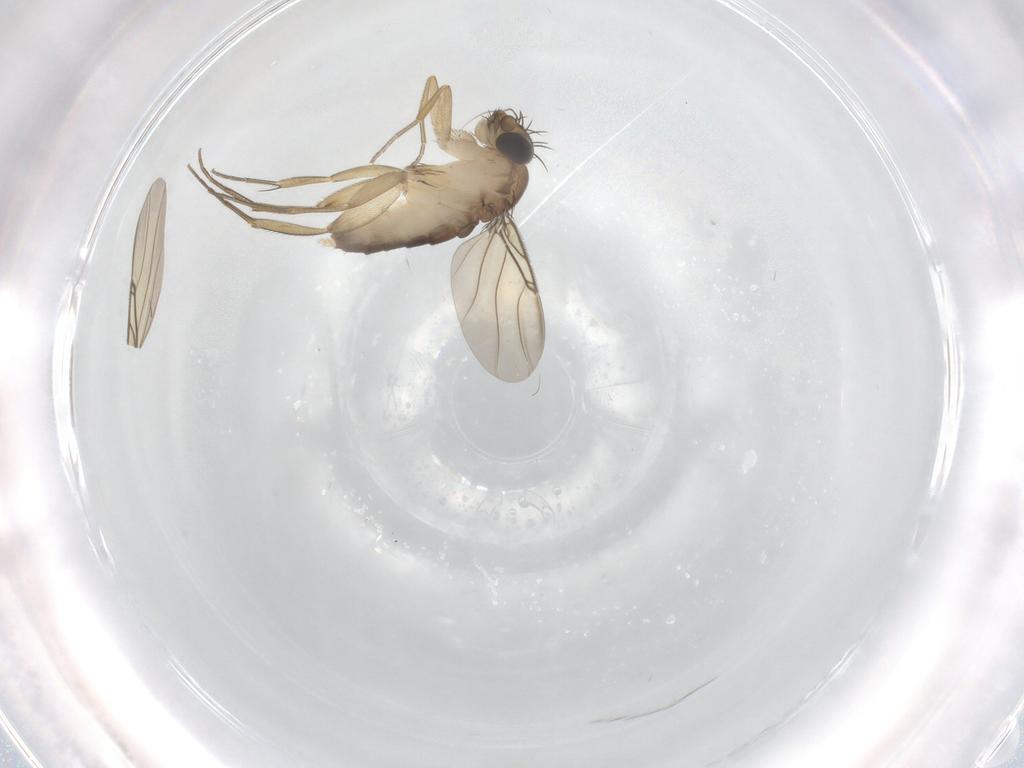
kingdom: Animalia
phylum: Arthropoda
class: Insecta
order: Diptera
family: Phoridae
